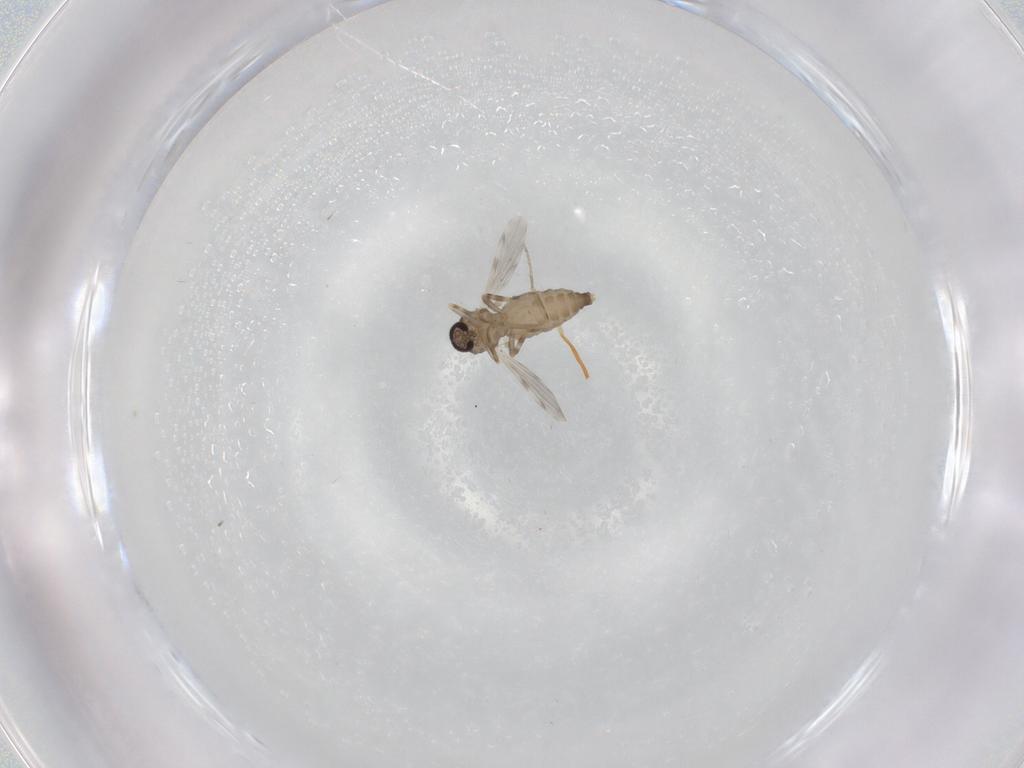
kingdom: Animalia
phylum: Arthropoda
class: Insecta
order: Diptera
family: Ceratopogonidae
